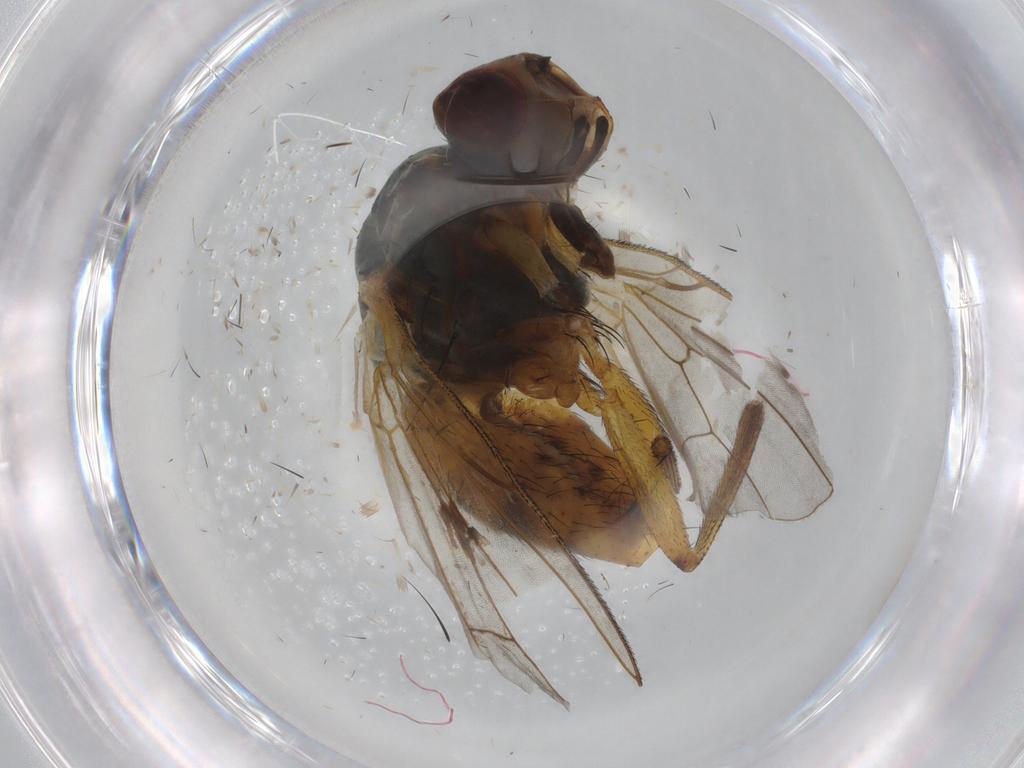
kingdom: Animalia
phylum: Arthropoda
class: Insecta
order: Diptera
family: Anthomyiidae
